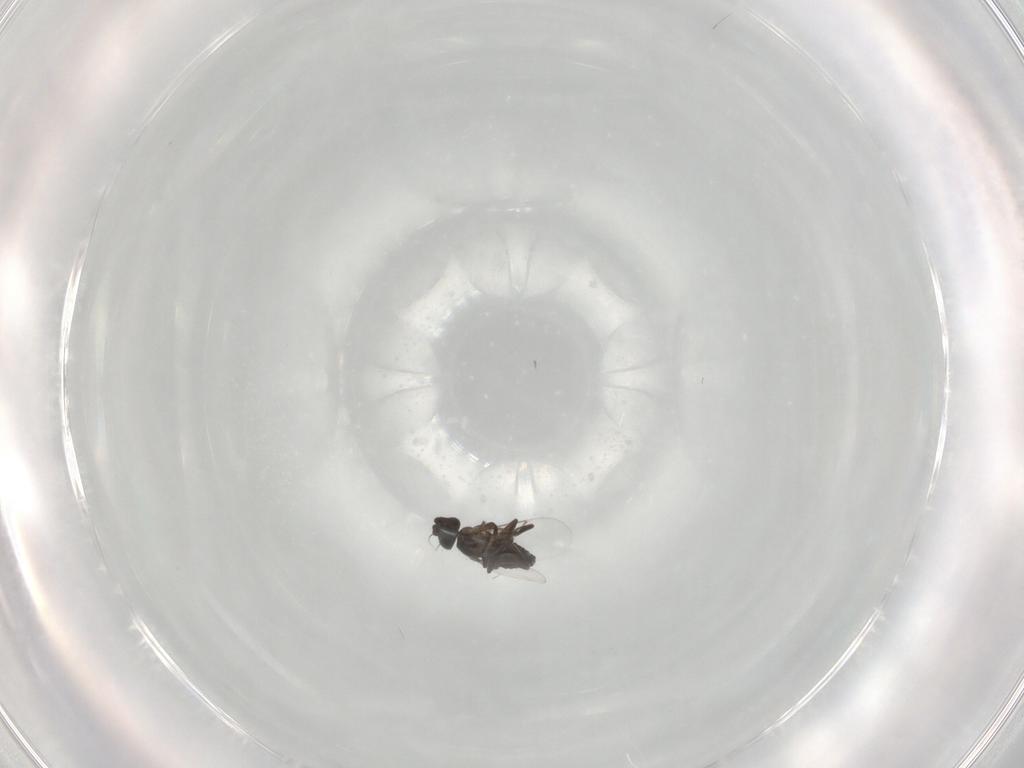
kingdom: Animalia
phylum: Arthropoda
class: Insecta
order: Diptera
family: Phoridae
